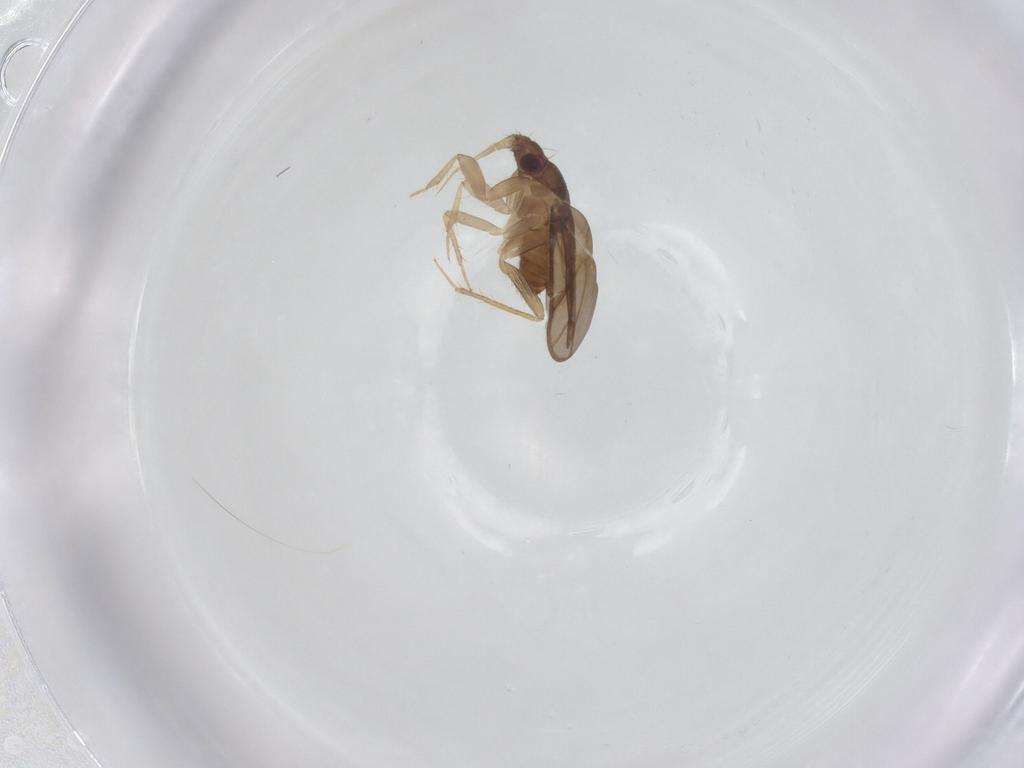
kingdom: Animalia
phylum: Arthropoda
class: Insecta
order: Hemiptera
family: Ceratocombidae
